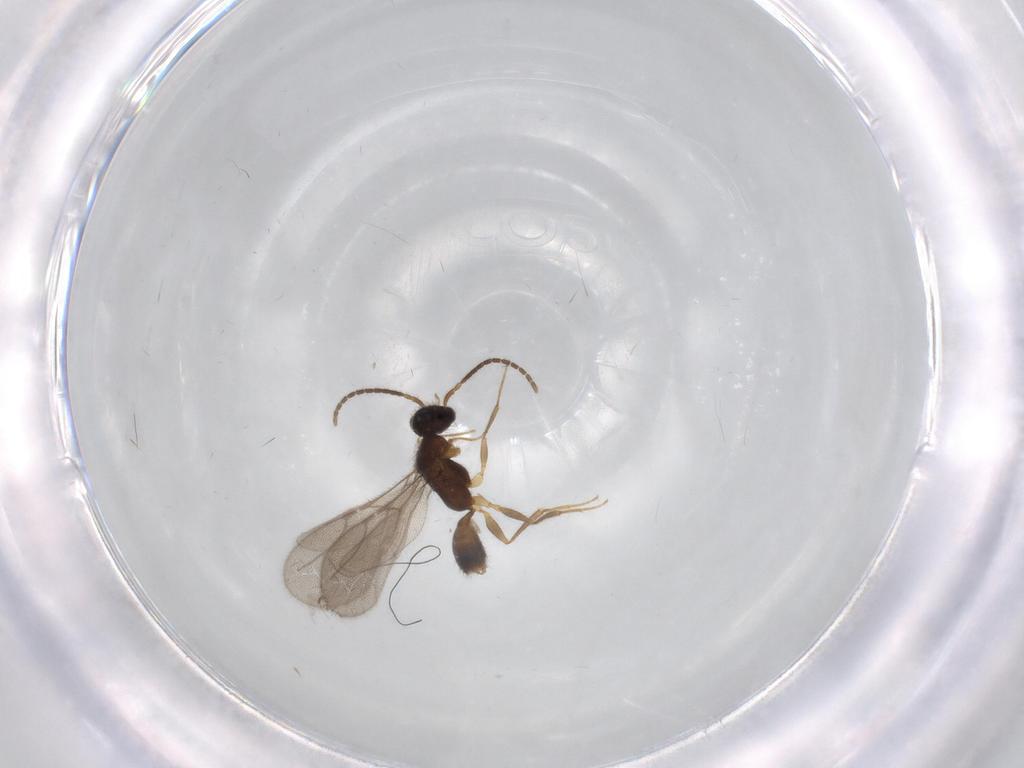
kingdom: Animalia
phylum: Arthropoda
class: Insecta
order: Hymenoptera
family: Bethylidae
